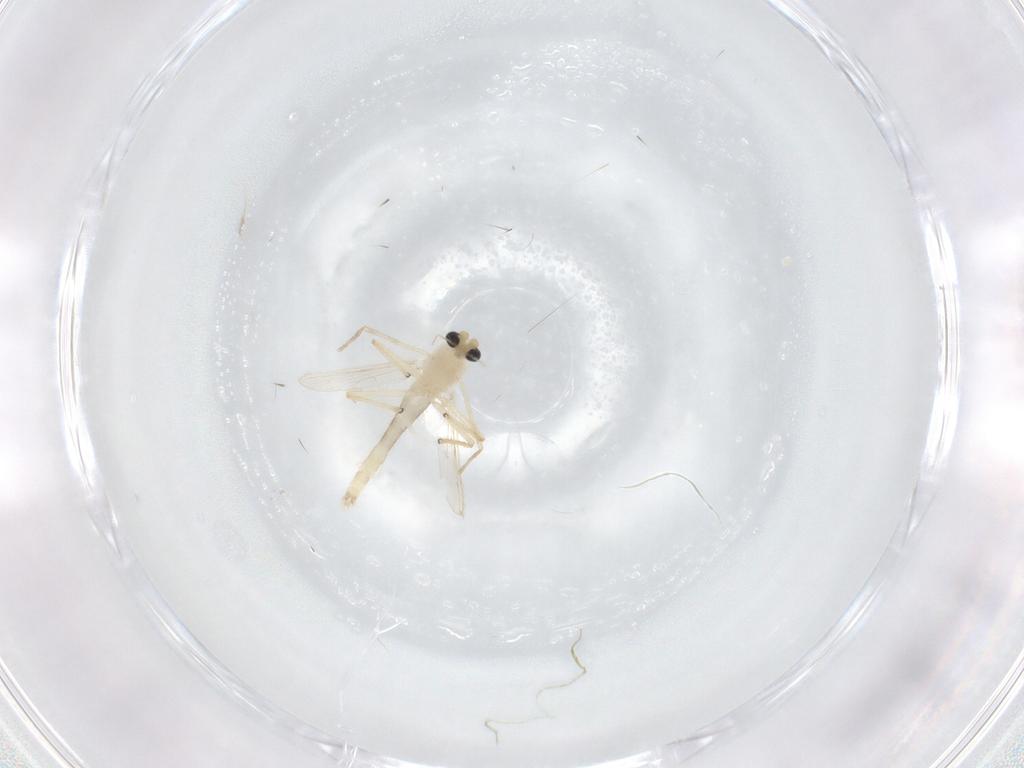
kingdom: Animalia
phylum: Arthropoda
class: Insecta
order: Diptera
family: Chironomidae
